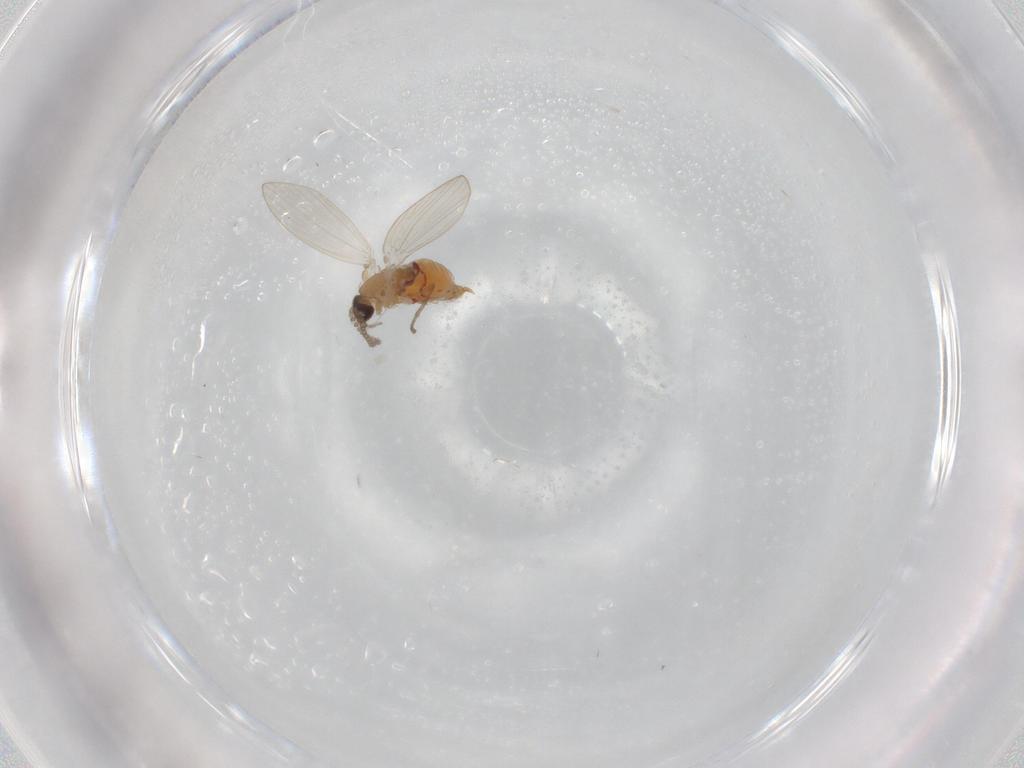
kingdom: Animalia
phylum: Arthropoda
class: Insecta
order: Diptera
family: Psychodidae
